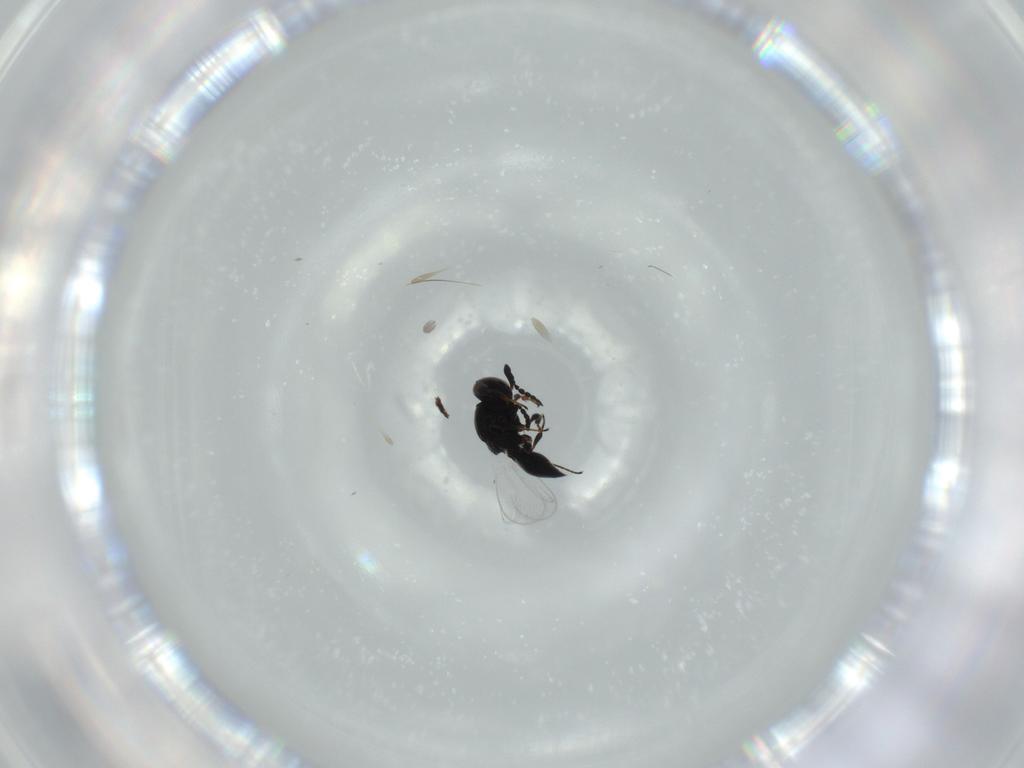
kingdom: Animalia
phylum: Arthropoda
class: Insecta
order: Hymenoptera
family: Platygastridae
